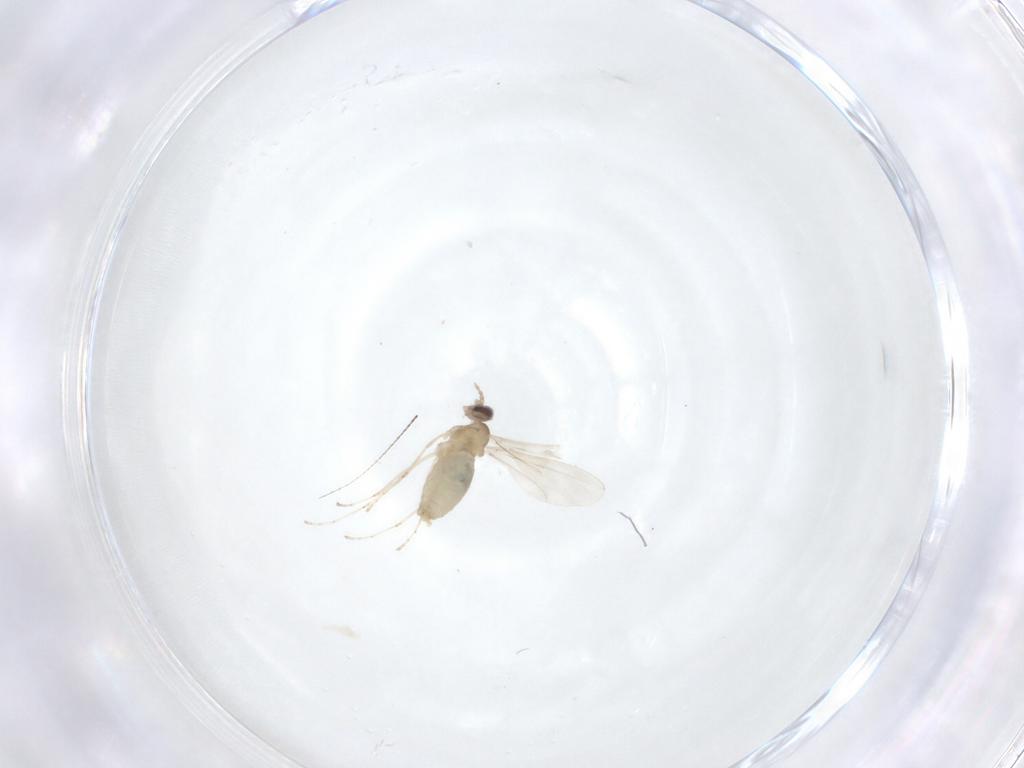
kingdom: Animalia
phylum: Arthropoda
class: Insecta
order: Diptera
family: Cecidomyiidae
